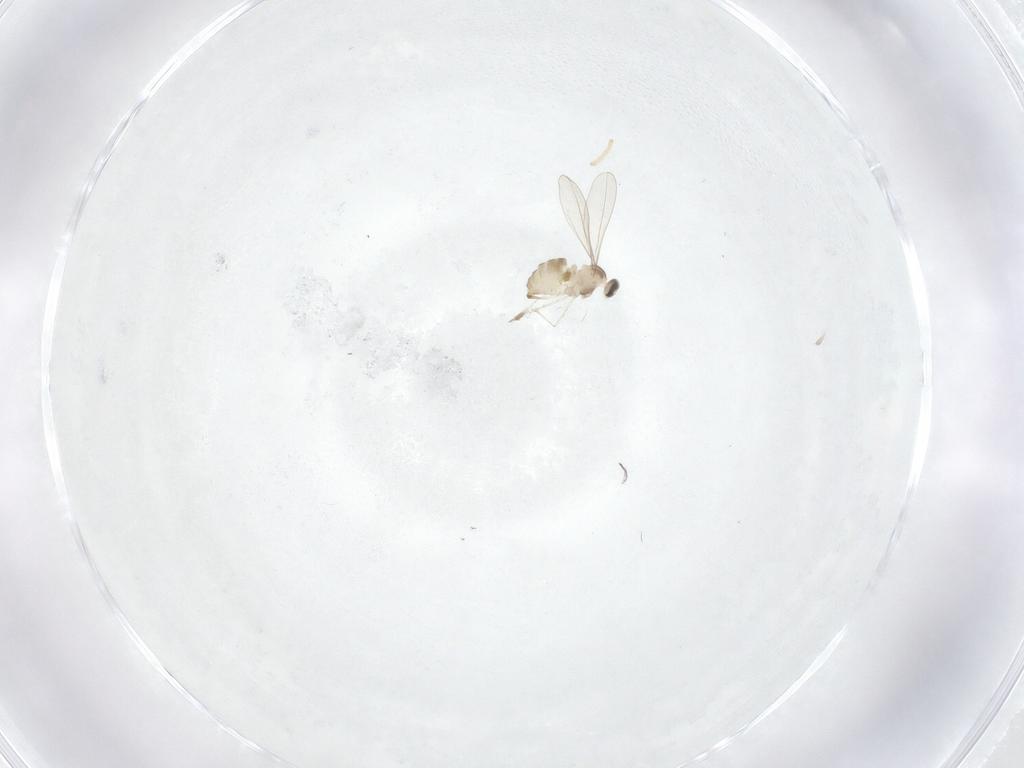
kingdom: Animalia
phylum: Arthropoda
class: Insecta
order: Diptera
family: Cecidomyiidae
